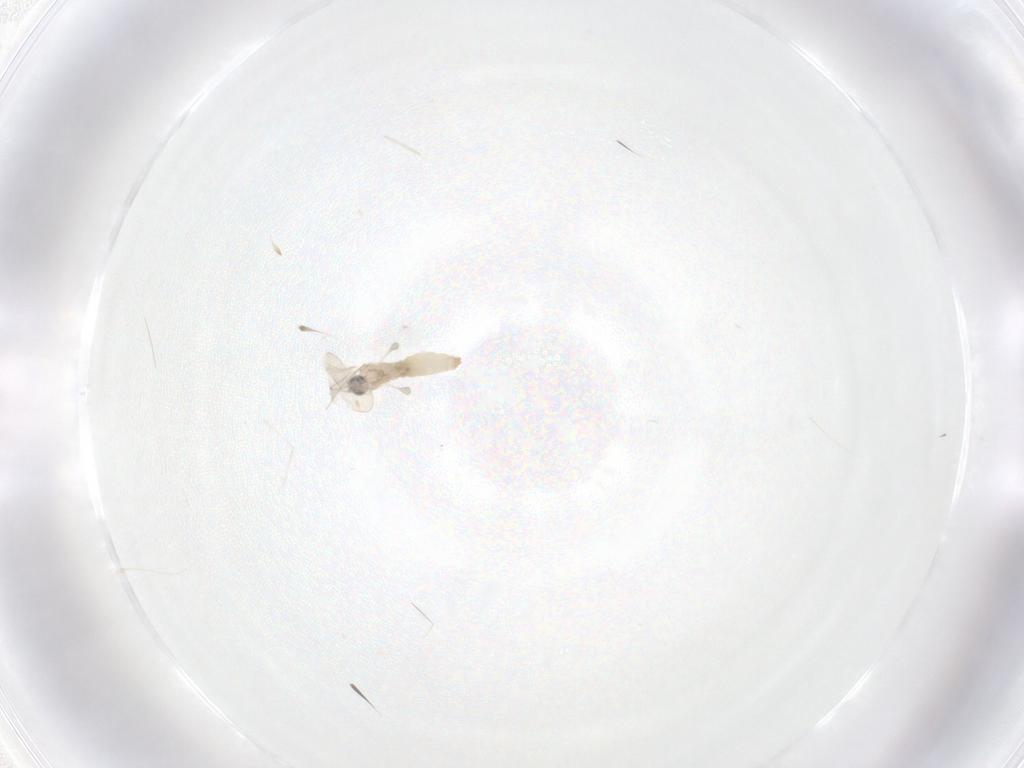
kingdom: Animalia
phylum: Arthropoda
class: Insecta
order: Diptera
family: Cecidomyiidae
